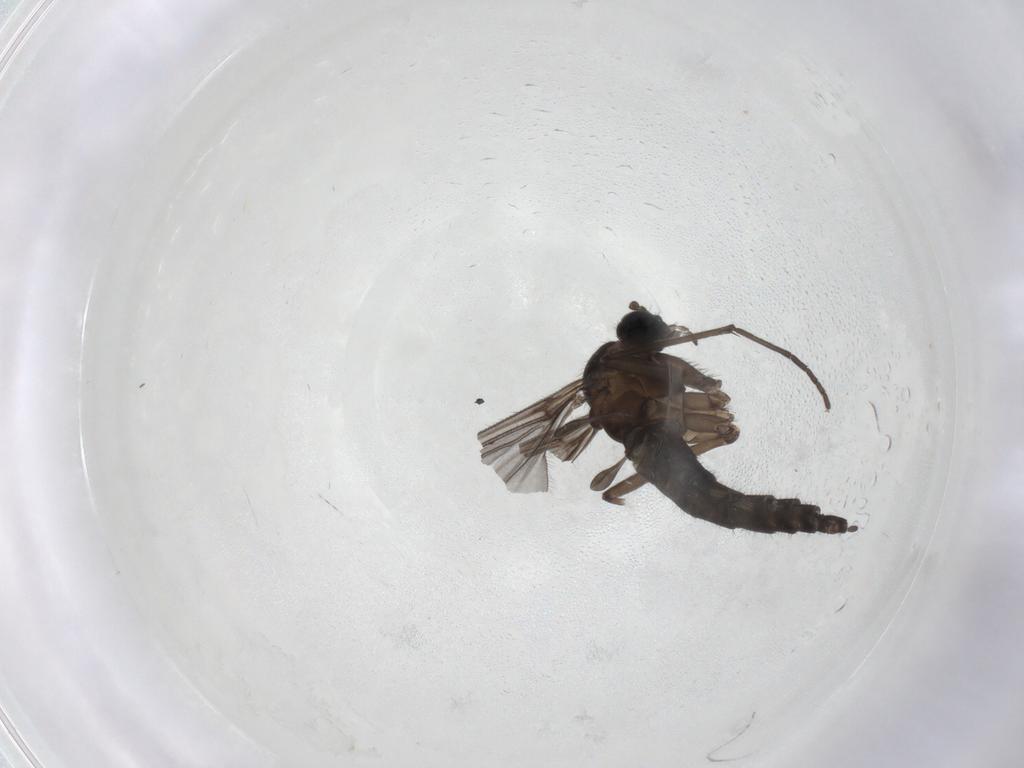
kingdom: Animalia
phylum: Arthropoda
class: Insecta
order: Diptera
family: Sciaridae
